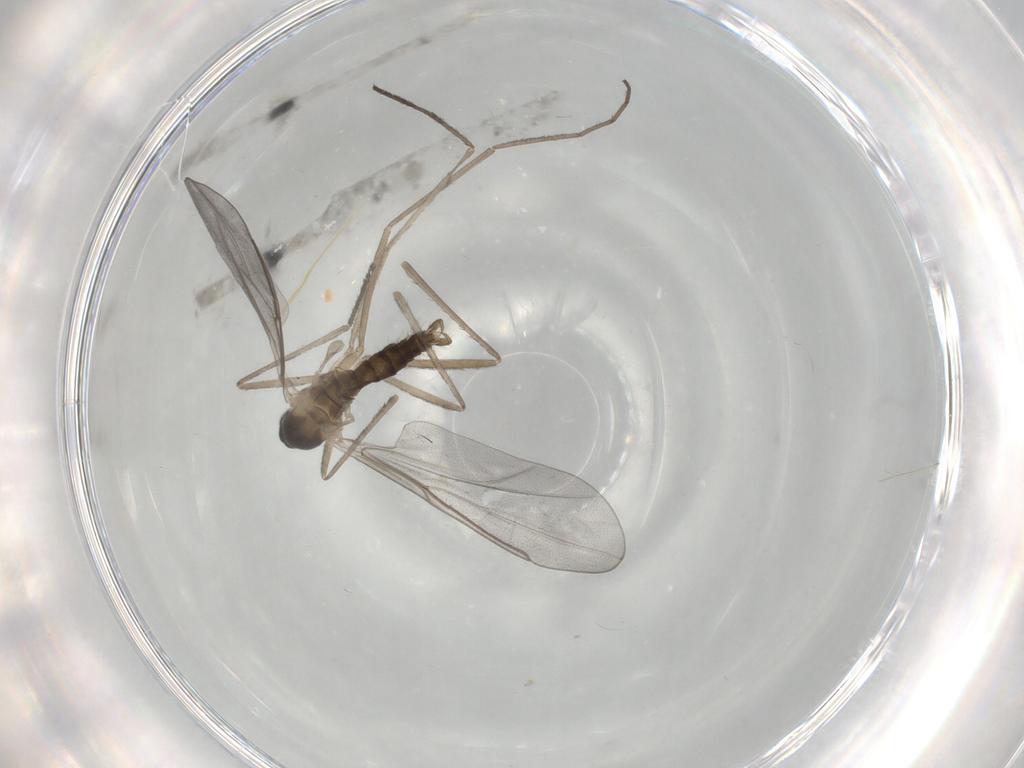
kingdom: Animalia
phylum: Arthropoda
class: Insecta
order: Diptera
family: Cecidomyiidae
